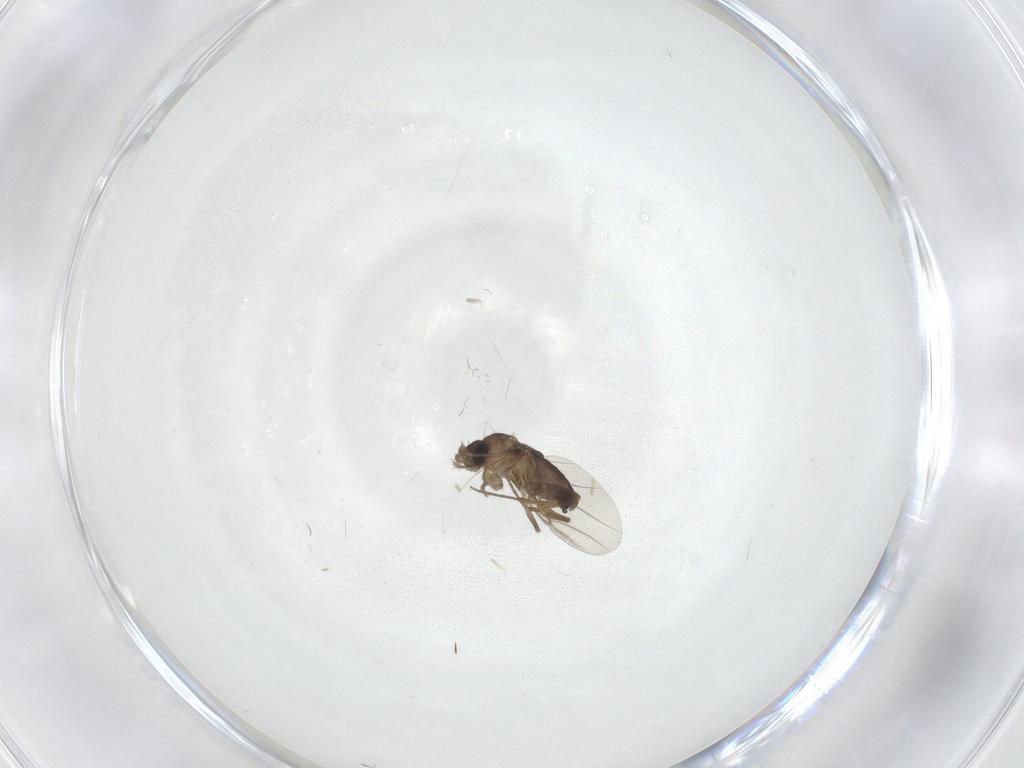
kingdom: Animalia
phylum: Arthropoda
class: Insecta
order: Diptera
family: Phoridae
